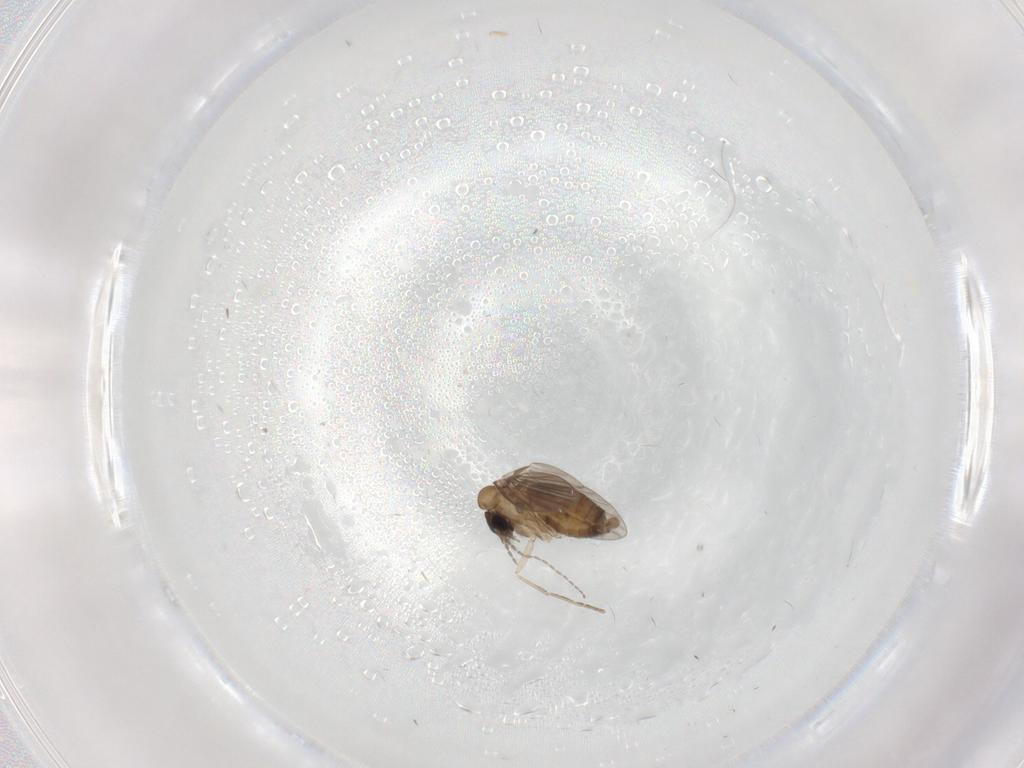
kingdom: Animalia
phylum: Arthropoda
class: Insecta
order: Diptera
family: Psychodidae
